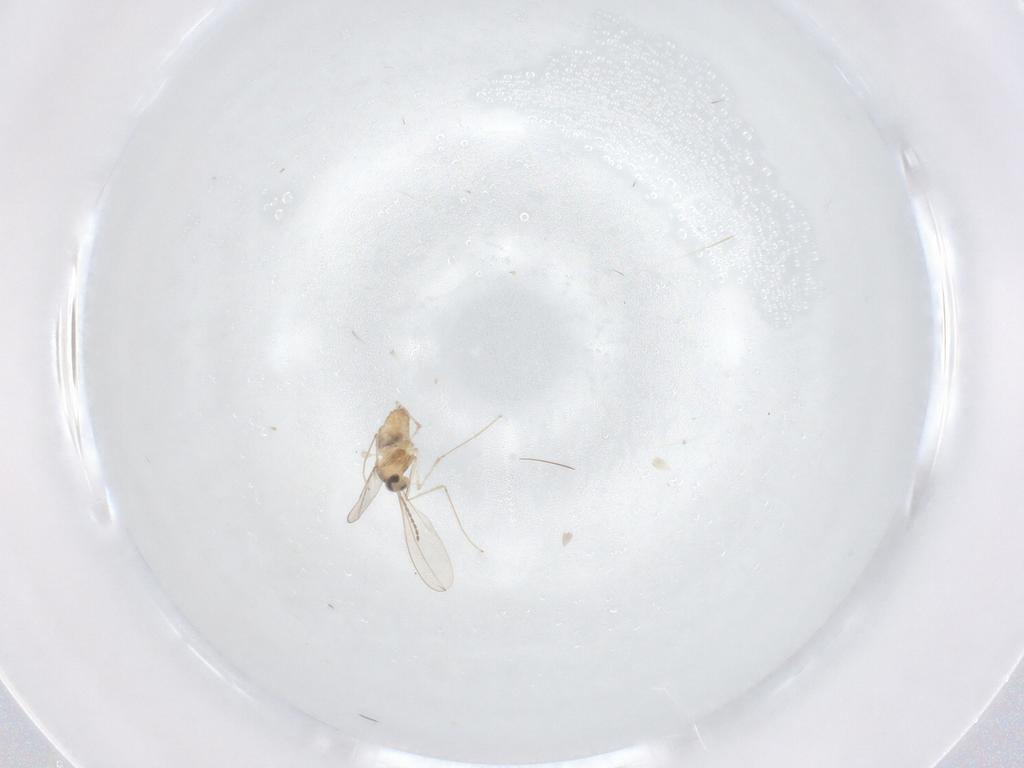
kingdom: Animalia
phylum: Arthropoda
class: Insecta
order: Diptera
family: Cecidomyiidae
